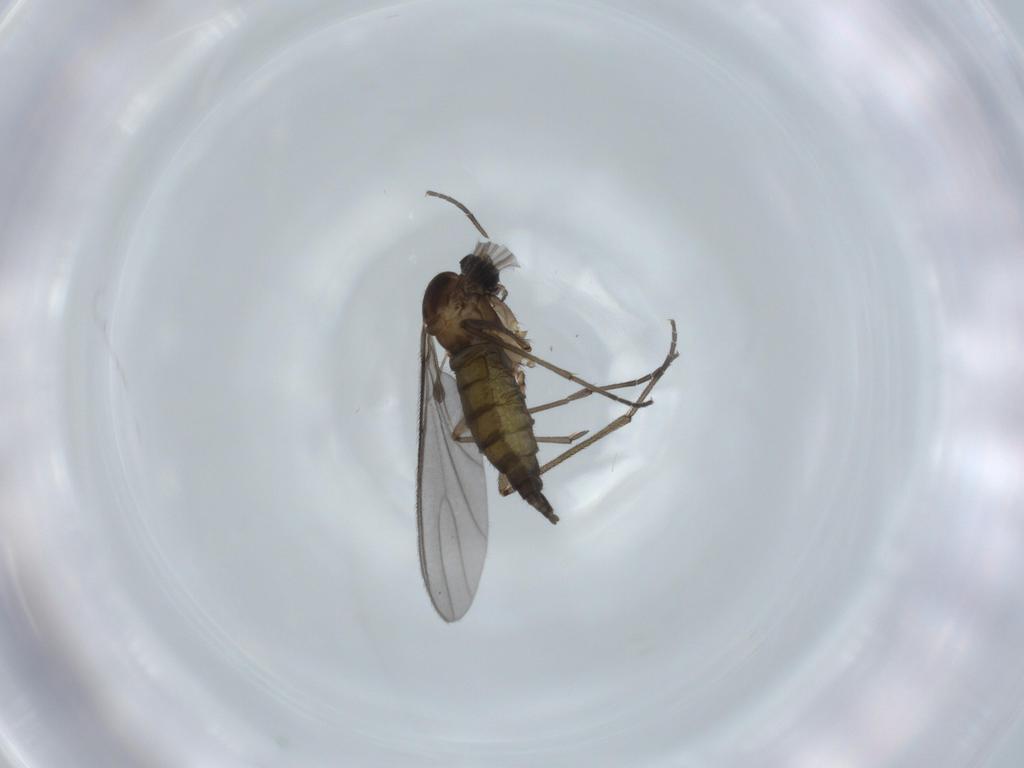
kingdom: Animalia
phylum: Arthropoda
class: Insecta
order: Diptera
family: Sciaridae
